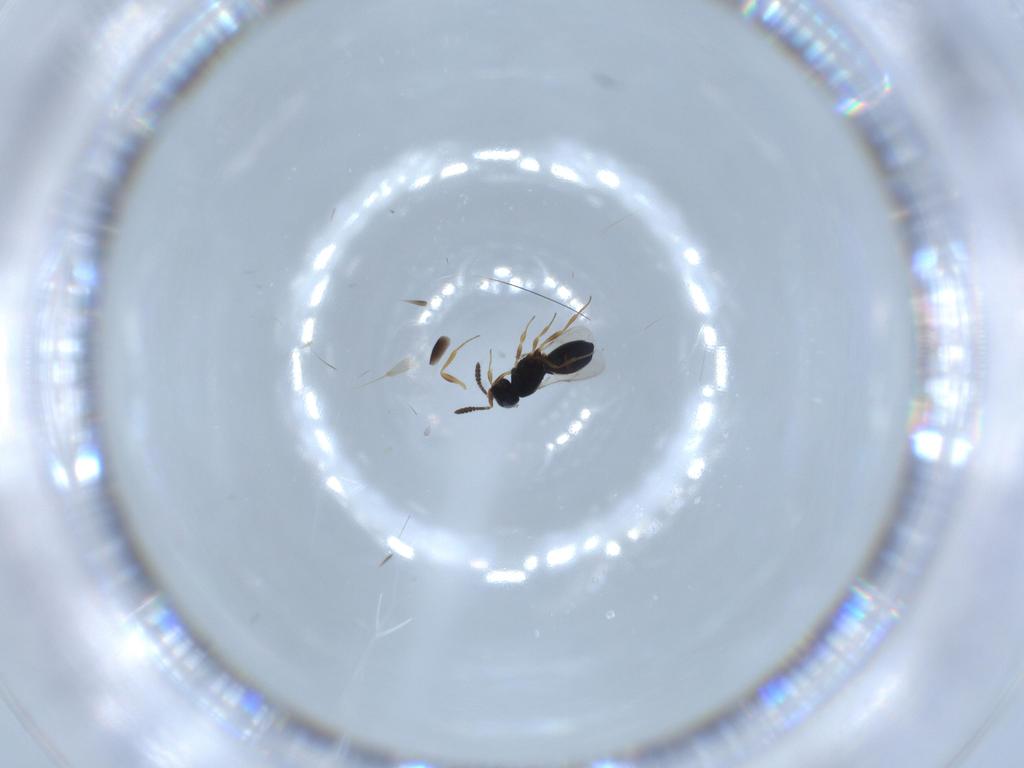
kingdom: Animalia
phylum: Arthropoda
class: Insecta
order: Hymenoptera
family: Scelionidae
